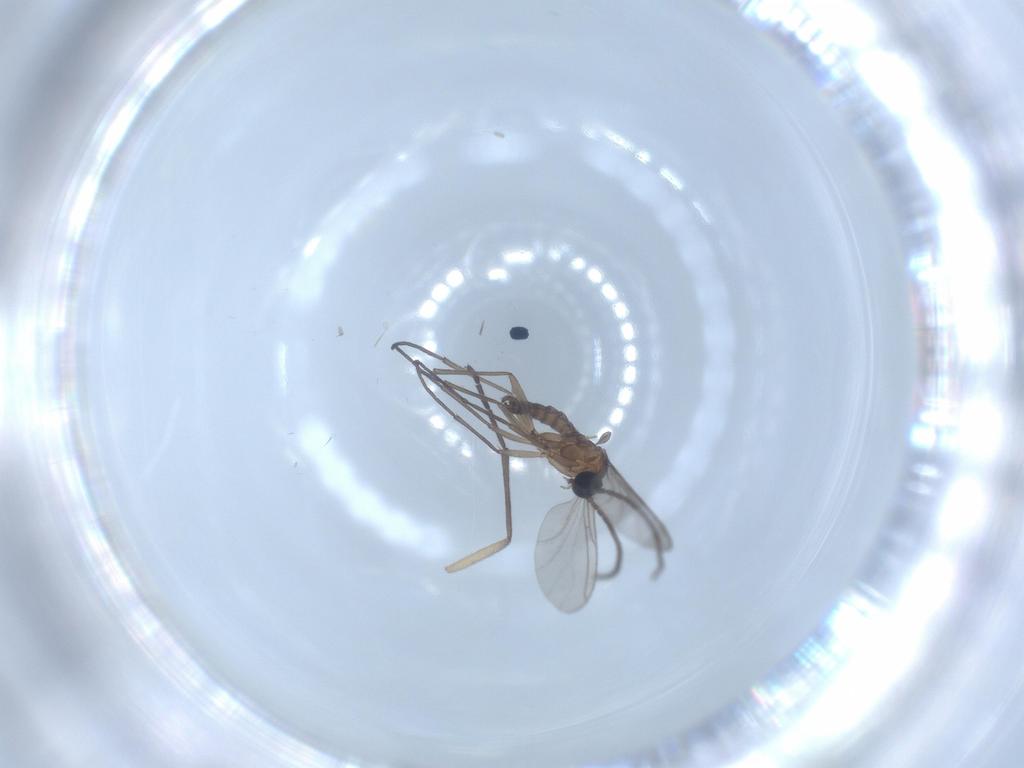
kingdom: Animalia
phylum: Arthropoda
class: Insecta
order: Diptera
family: Sciaridae
